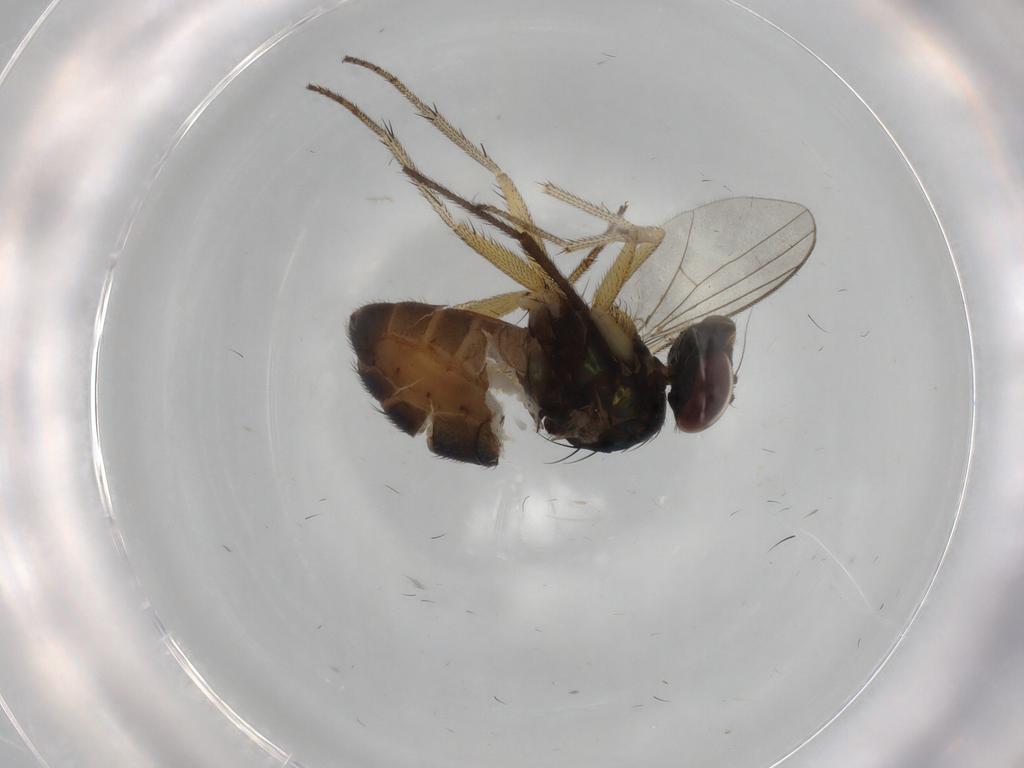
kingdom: Animalia
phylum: Arthropoda
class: Insecta
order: Diptera
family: Dolichopodidae
